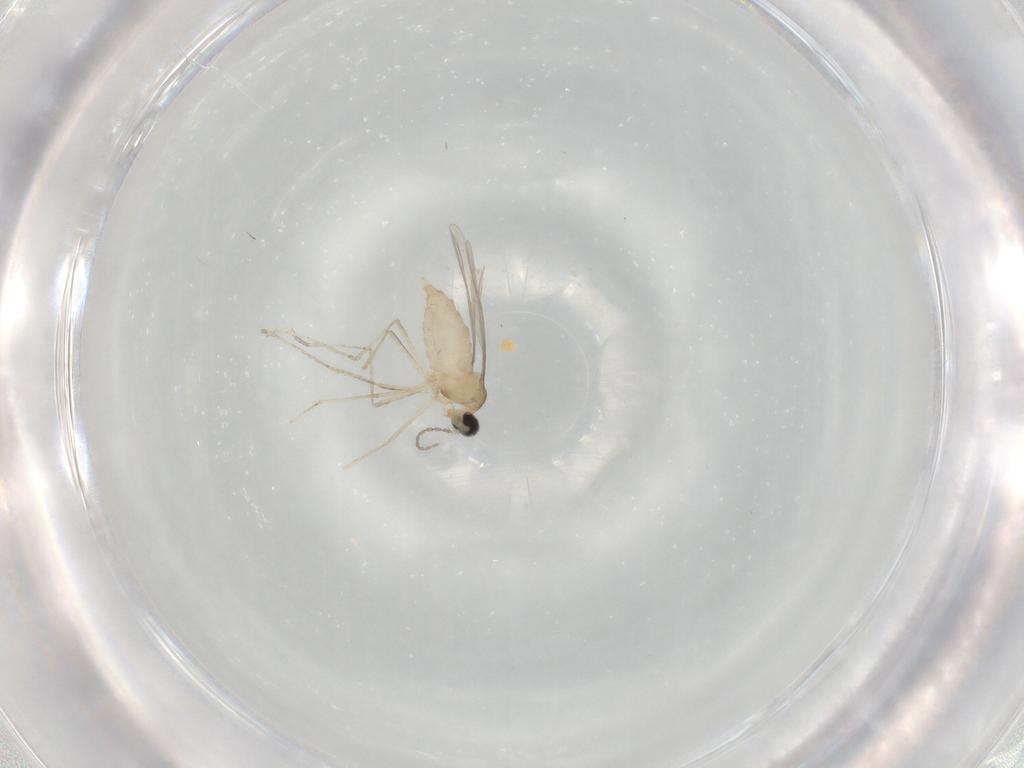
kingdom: Animalia
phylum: Arthropoda
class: Insecta
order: Diptera
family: Cecidomyiidae
